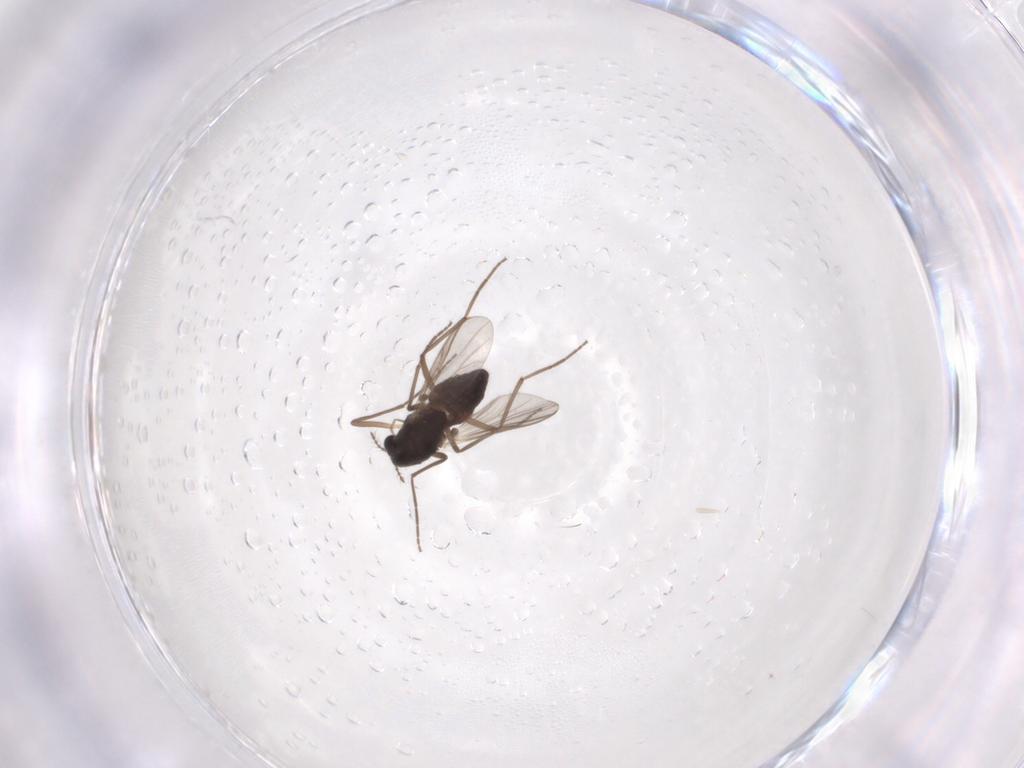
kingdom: Animalia
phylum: Arthropoda
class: Insecta
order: Diptera
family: Chironomidae
